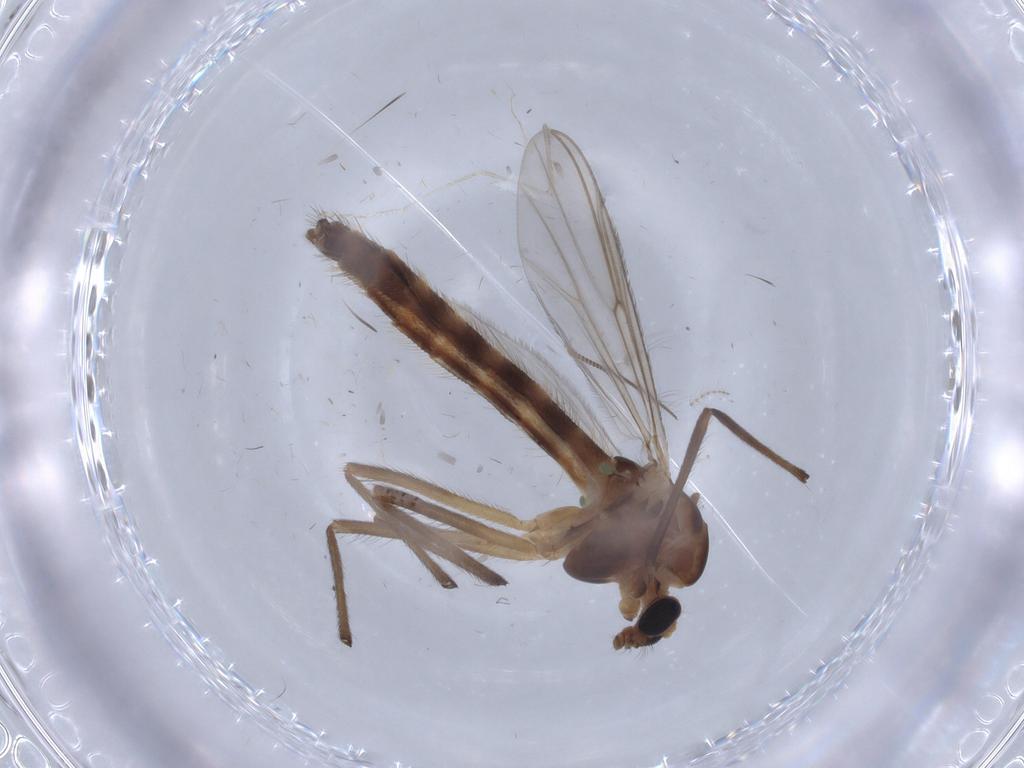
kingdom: Animalia
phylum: Arthropoda
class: Insecta
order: Diptera
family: Chironomidae
